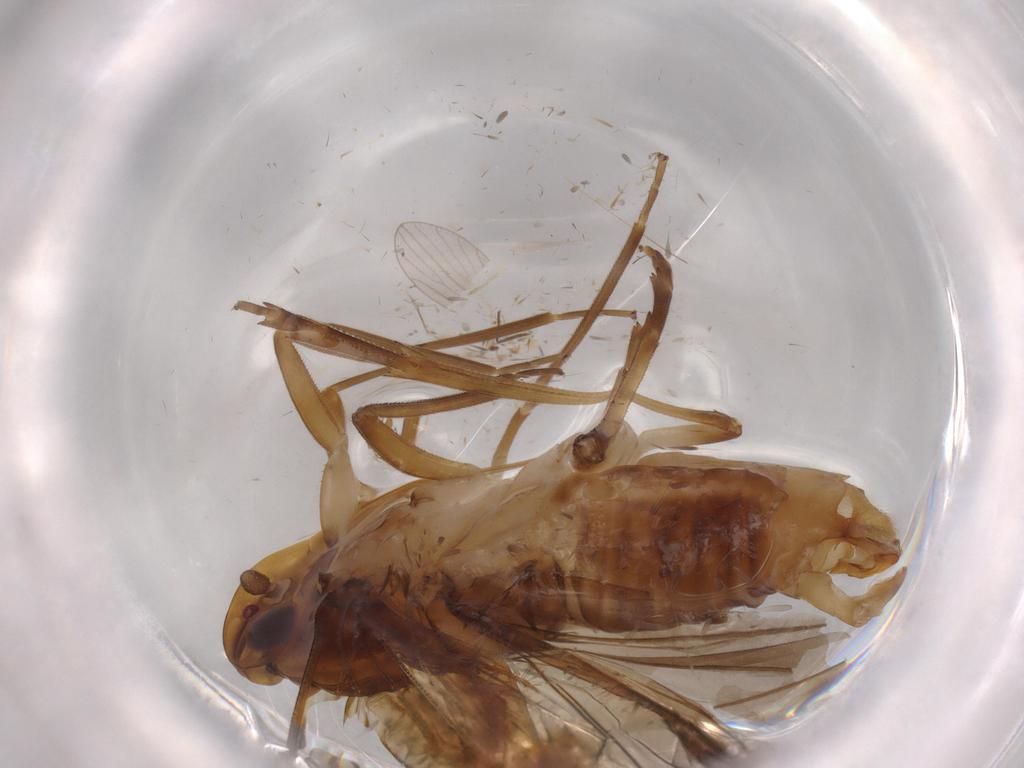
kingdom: Animalia
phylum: Arthropoda
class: Insecta
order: Hemiptera
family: Cixiidae
